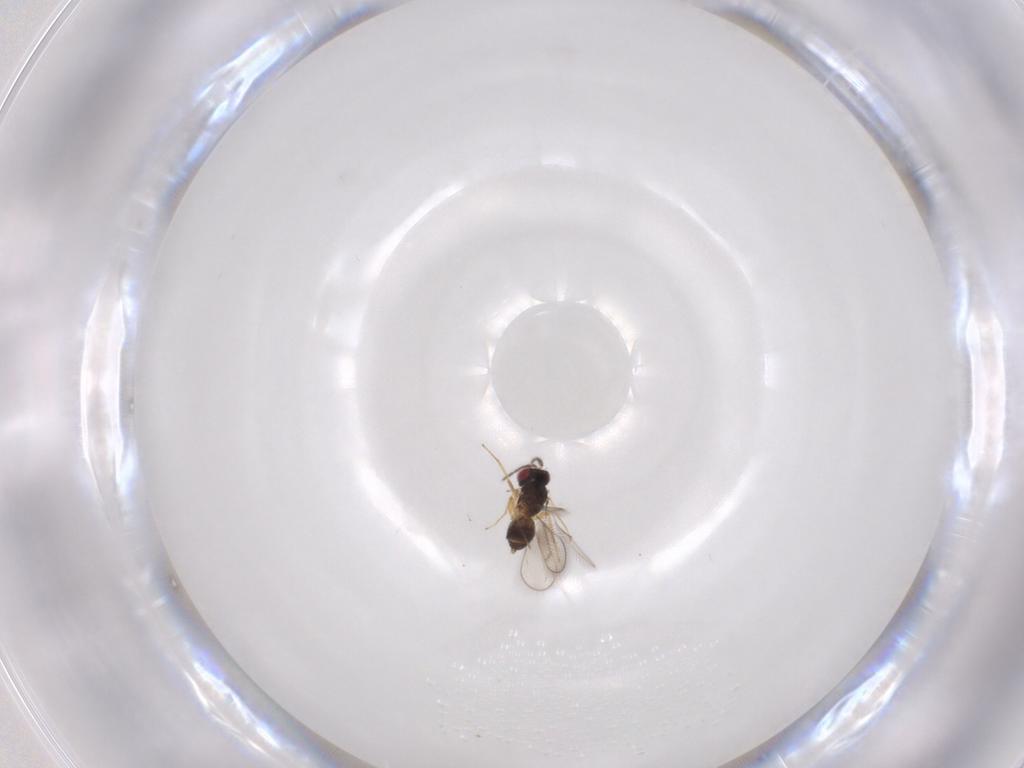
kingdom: Animalia
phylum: Arthropoda
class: Insecta
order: Hymenoptera
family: Eulophidae
